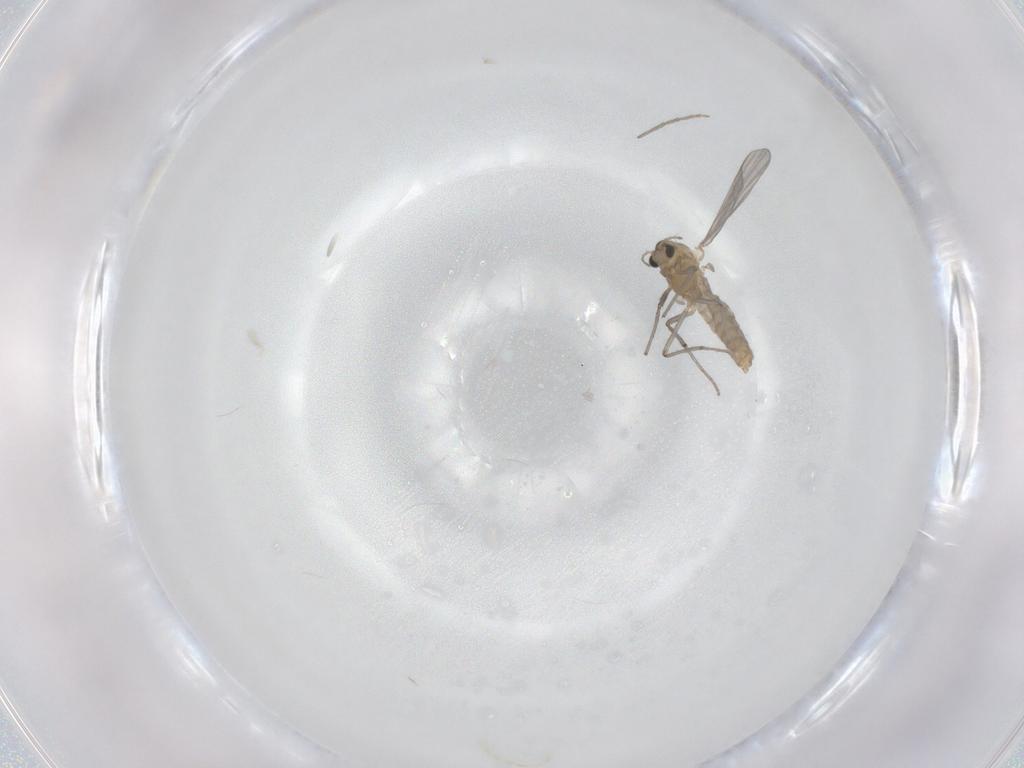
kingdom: Animalia
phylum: Arthropoda
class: Insecta
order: Diptera
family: Chironomidae
